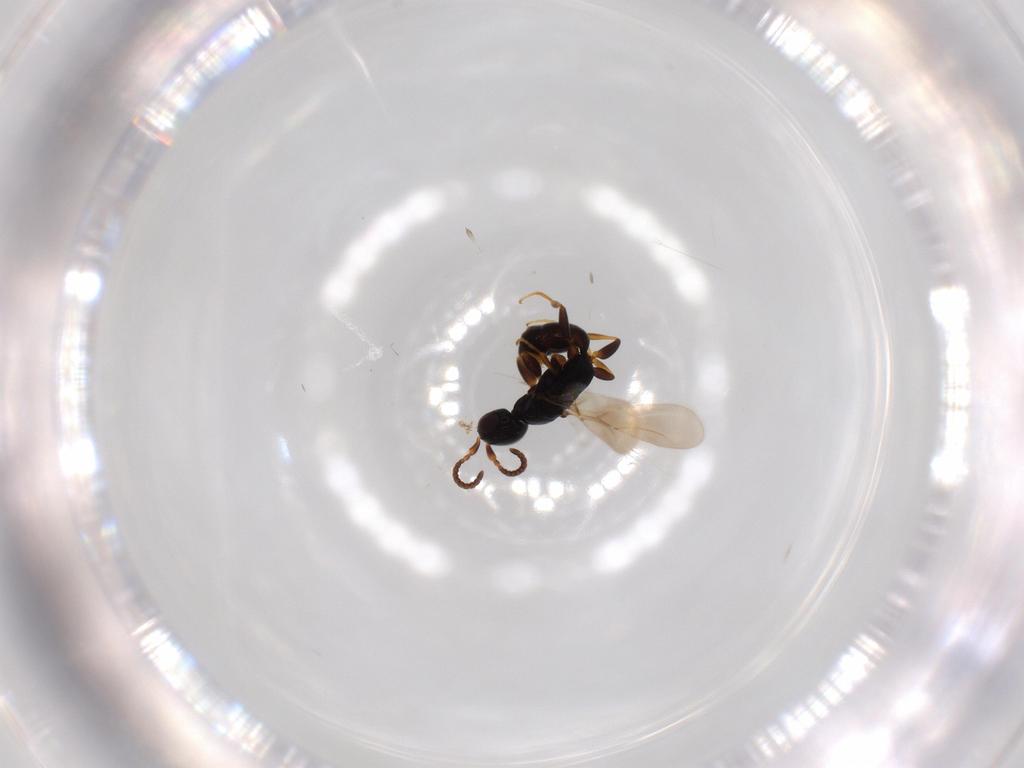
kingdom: Animalia
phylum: Arthropoda
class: Insecta
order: Hymenoptera
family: Bethylidae
